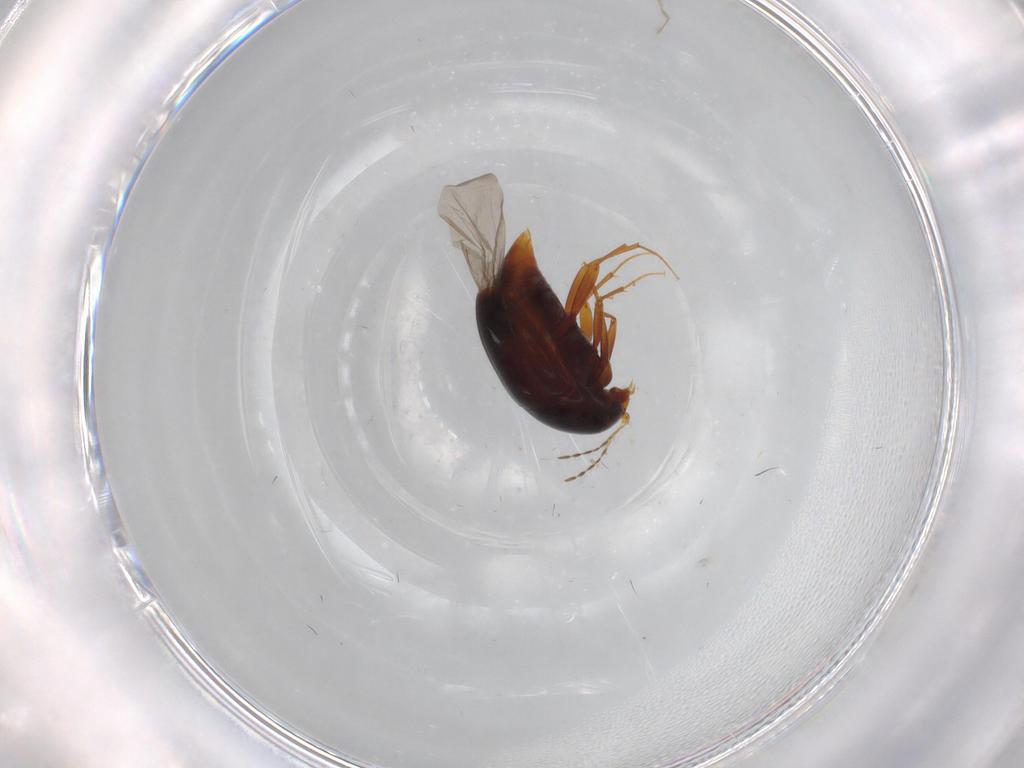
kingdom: Animalia
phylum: Arthropoda
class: Insecta
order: Coleoptera
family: Staphylinidae
